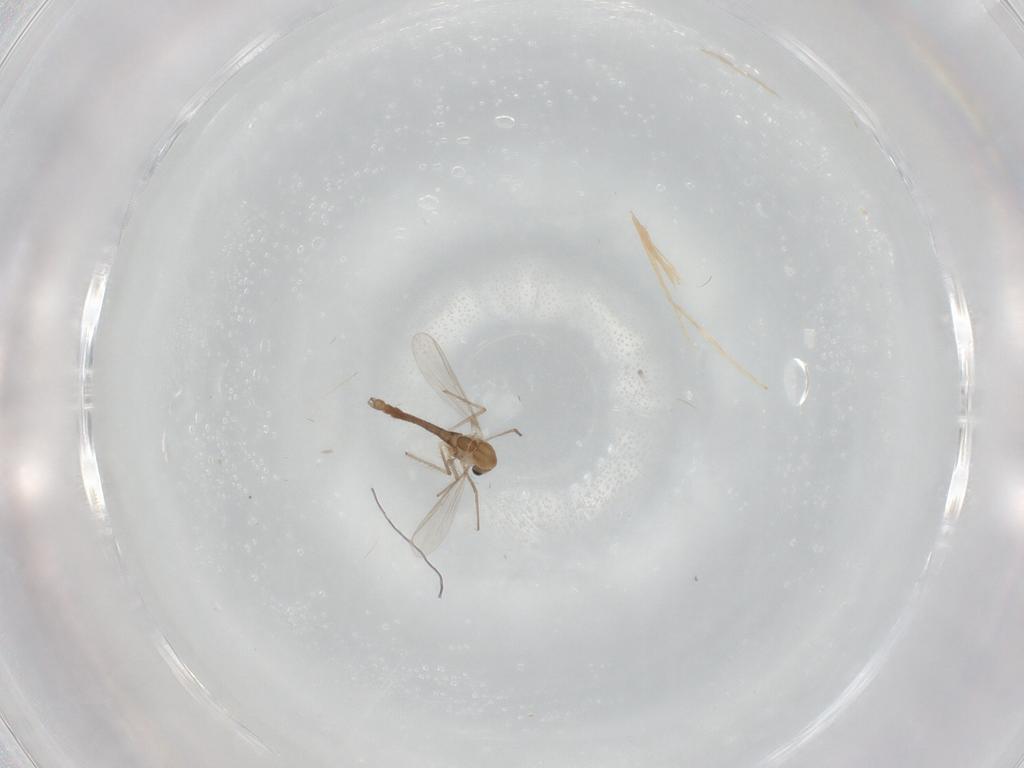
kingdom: Animalia
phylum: Arthropoda
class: Insecta
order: Diptera
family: Chironomidae
